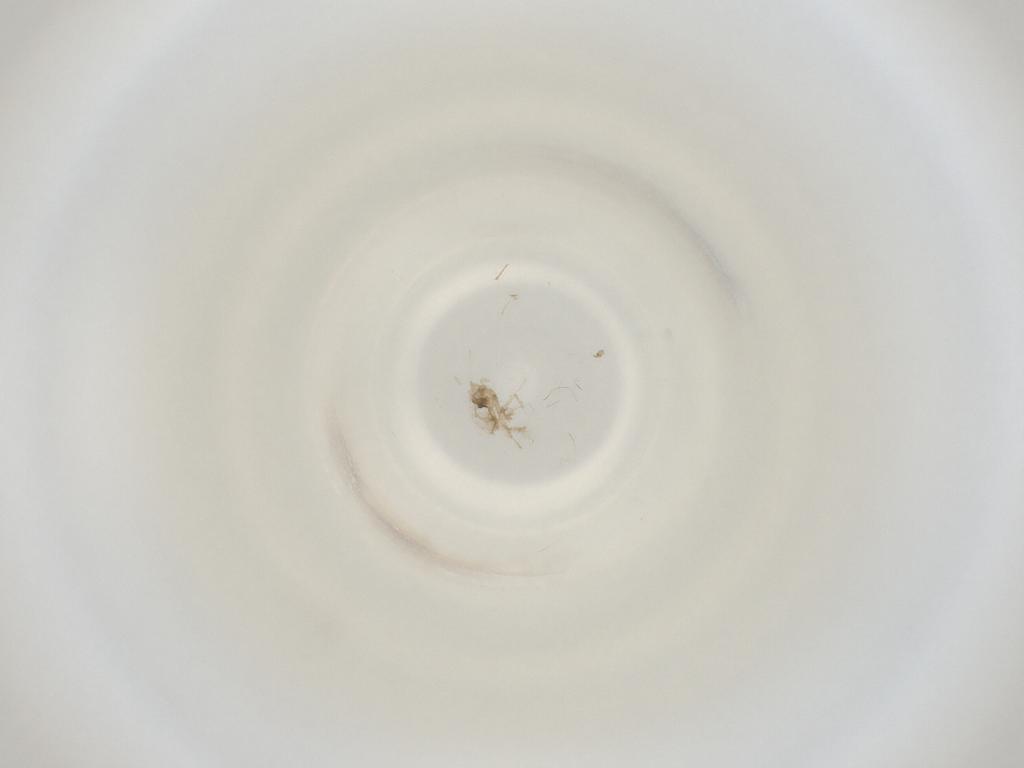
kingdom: Animalia
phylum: Arthropoda
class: Insecta
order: Diptera
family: Cecidomyiidae
